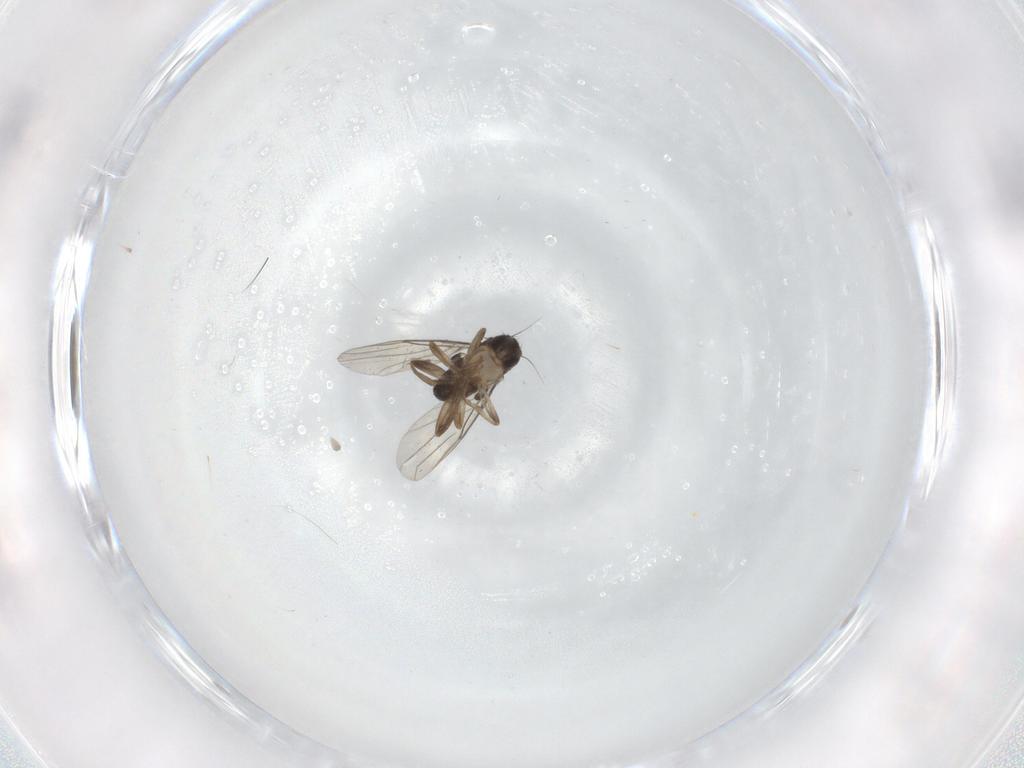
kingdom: Animalia
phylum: Arthropoda
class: Insecta
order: Diptera
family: Phoridae
